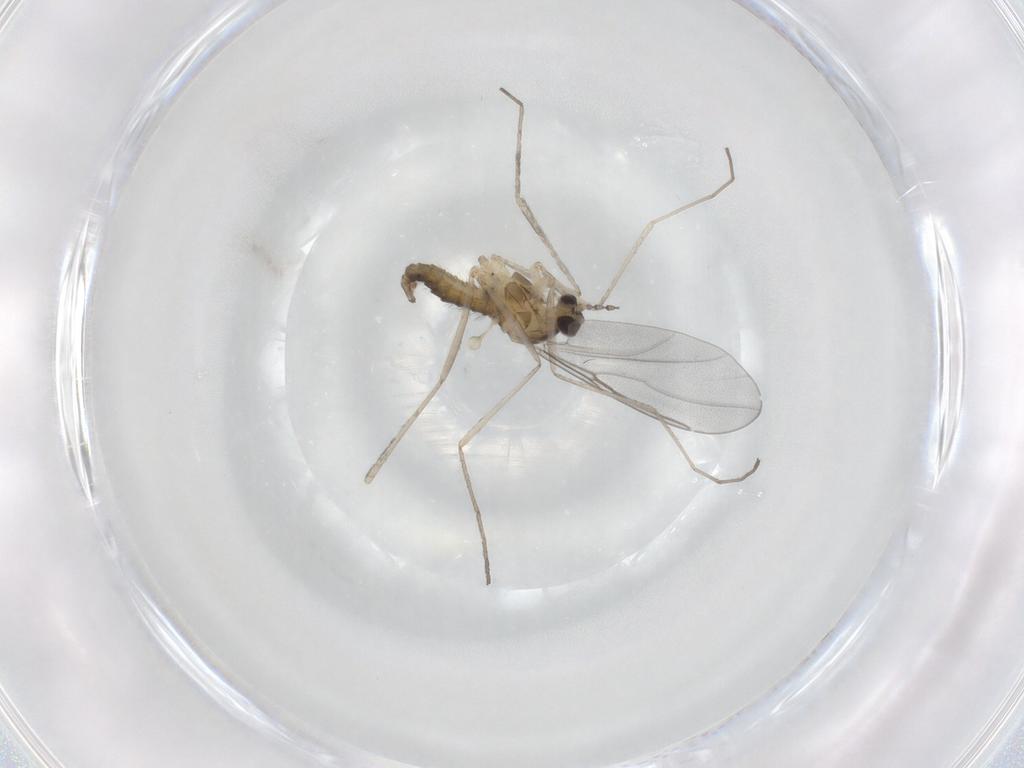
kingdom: Animalia
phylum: Arthropoda
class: Insecta
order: Diptera
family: Cecidomyiidae
